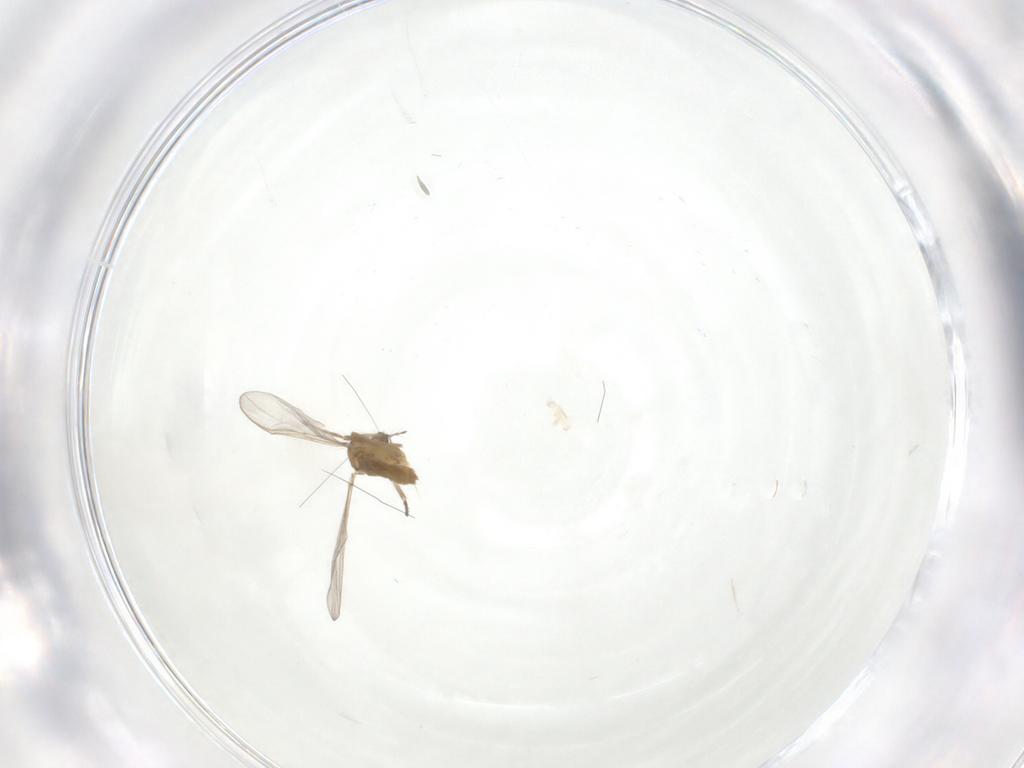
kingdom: Animalia
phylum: Arthropoda
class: Insecta
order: Diptera
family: Chironomidae
